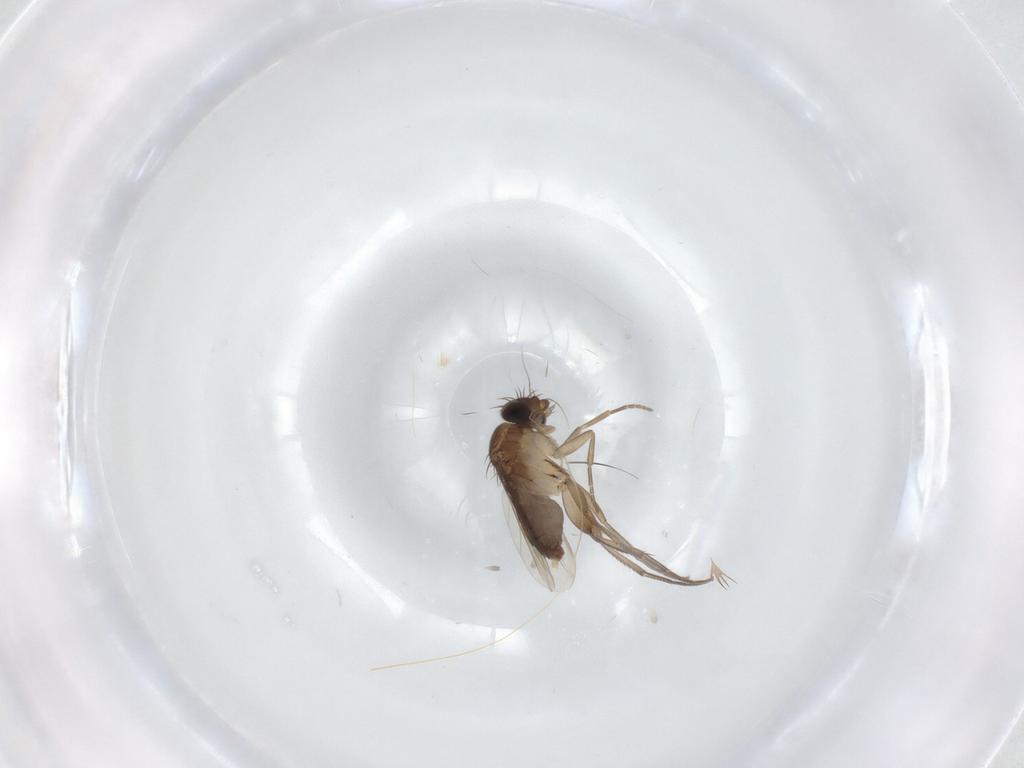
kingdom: Animalia
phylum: Arthropoda
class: Insecta
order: Diptera
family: Phoridae
